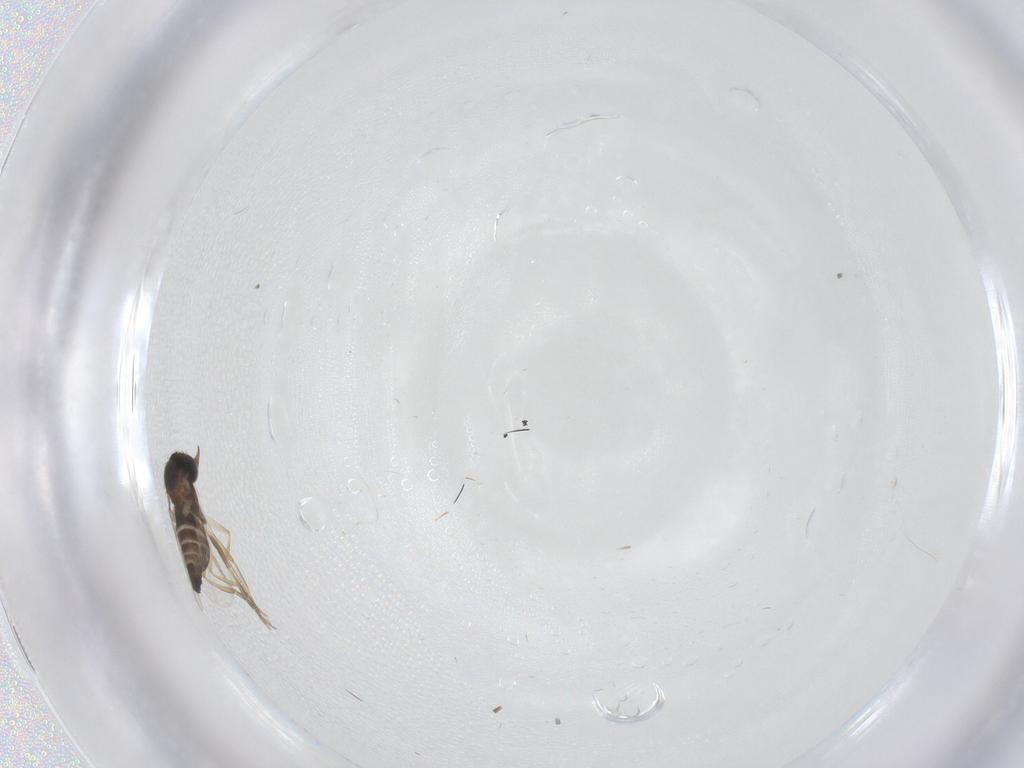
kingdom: Animalia
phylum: Arthropoda
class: Insecta
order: Diptera
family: Phoridae
